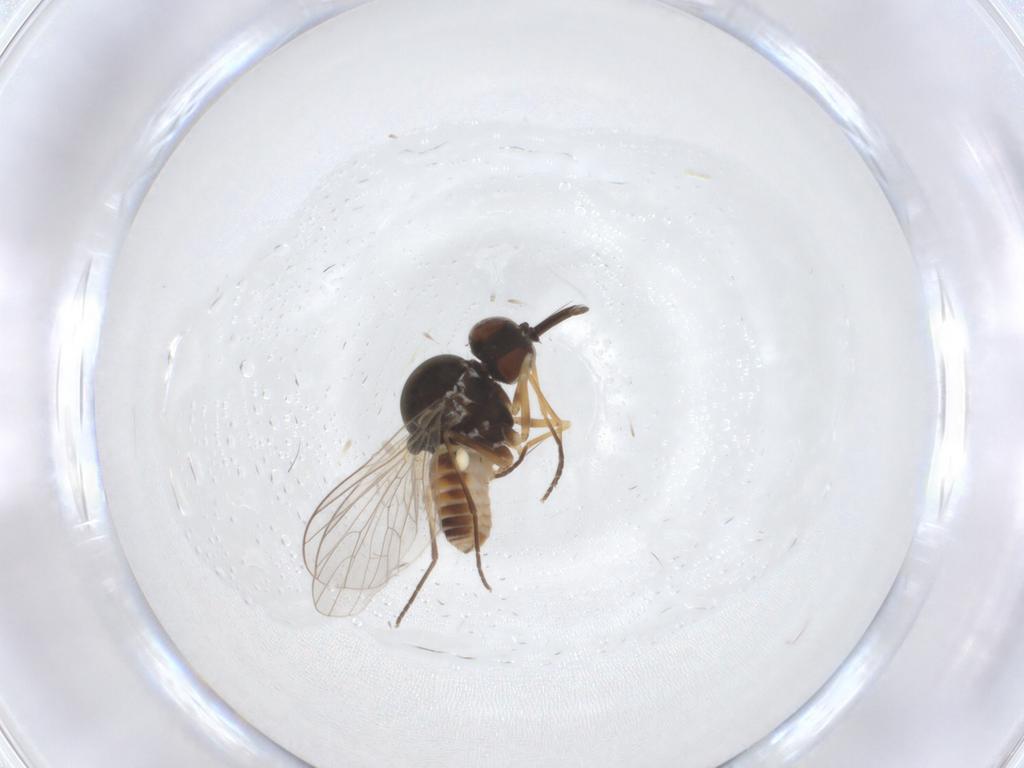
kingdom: Animalia
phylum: Arthropoda
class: Insecta
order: Diptera
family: Bombyliidae
